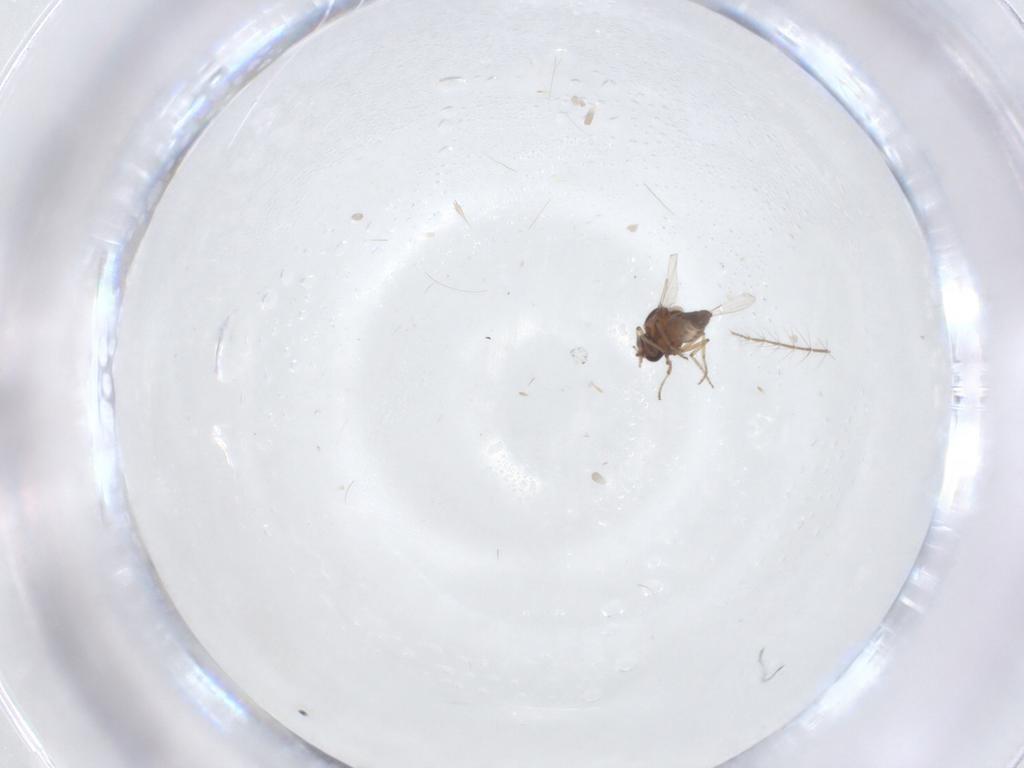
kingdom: Animalia
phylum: Arthropoda
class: Insecta
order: Diptera
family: Ceratopogonidae
